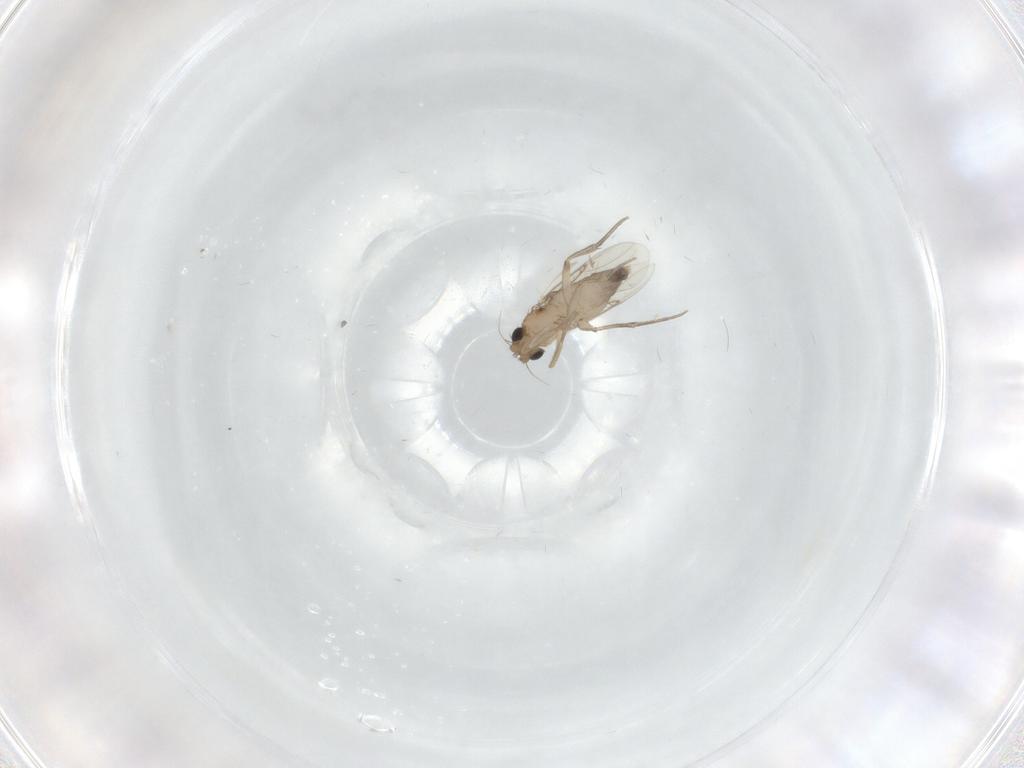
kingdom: Animalia
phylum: Arthropoda
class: Insecta
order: Diptera
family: Phoridae
